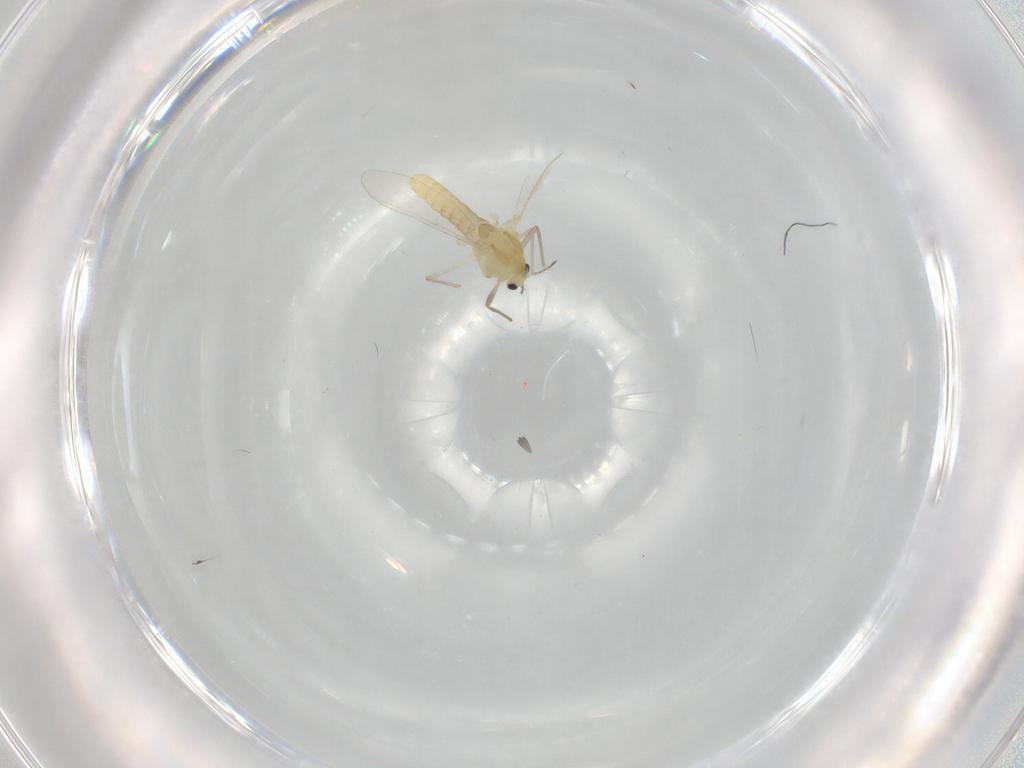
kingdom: Animalia
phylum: Arthropoda
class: Insecta
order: Diptera
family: Chironomidae
